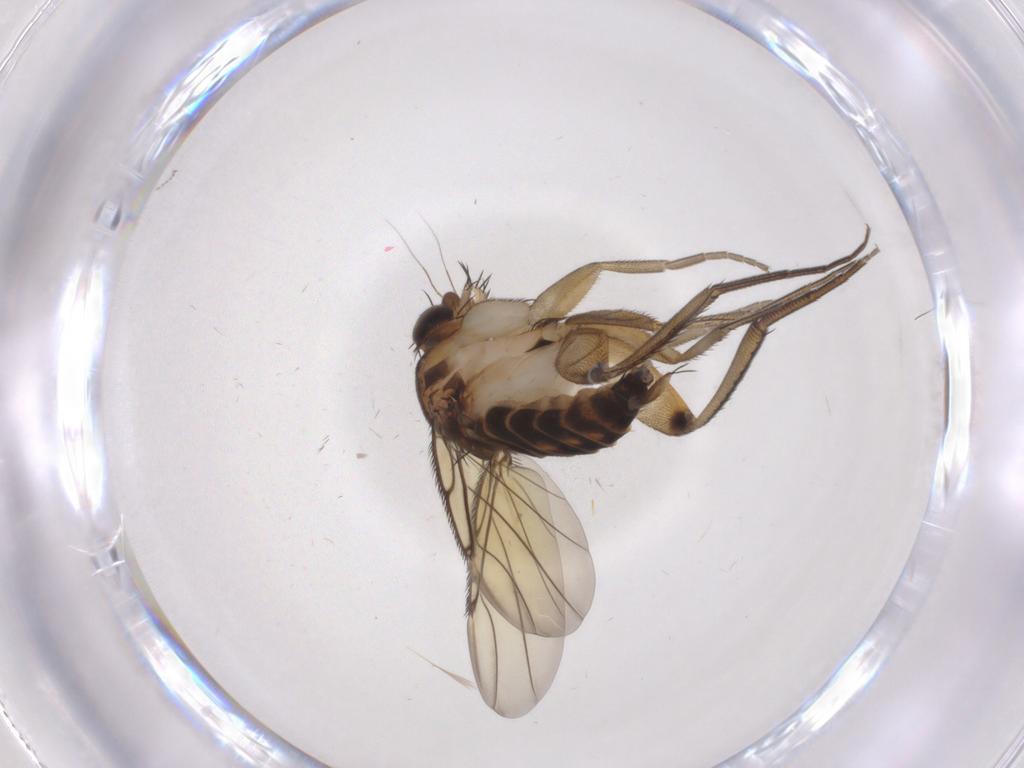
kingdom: Animalia
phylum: Arthropoda
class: Insecta
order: Diptera
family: Phoridae
